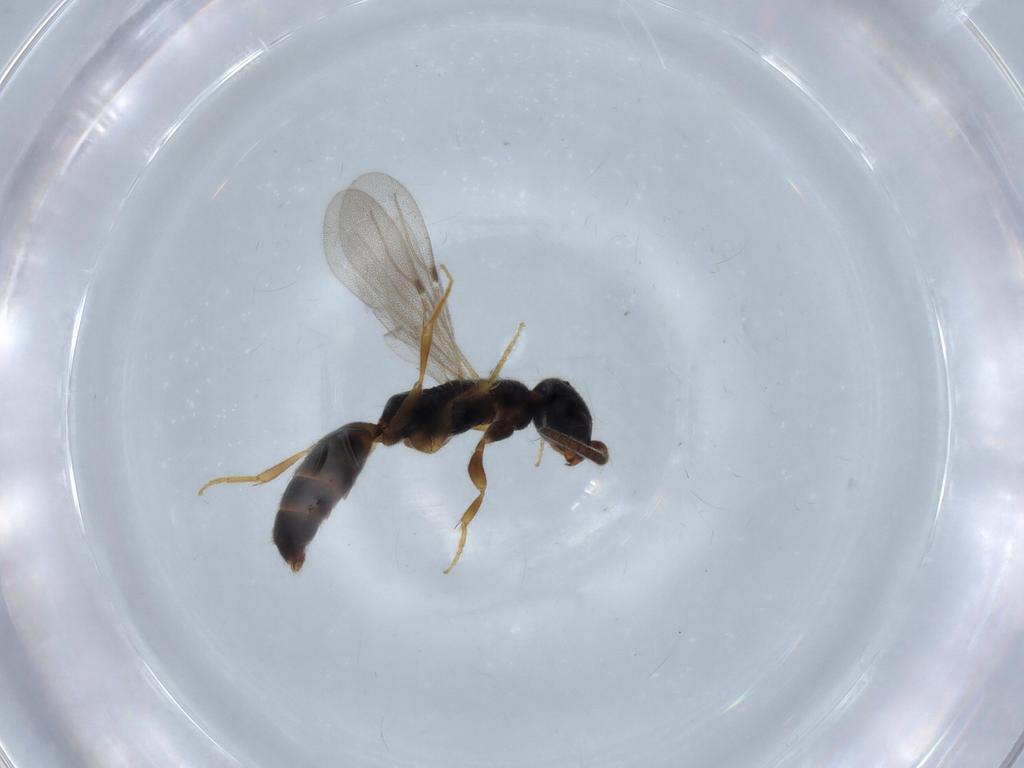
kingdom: Animalia
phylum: Arthropoda
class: Insecta
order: Hymenoptera
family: Bethylidae
